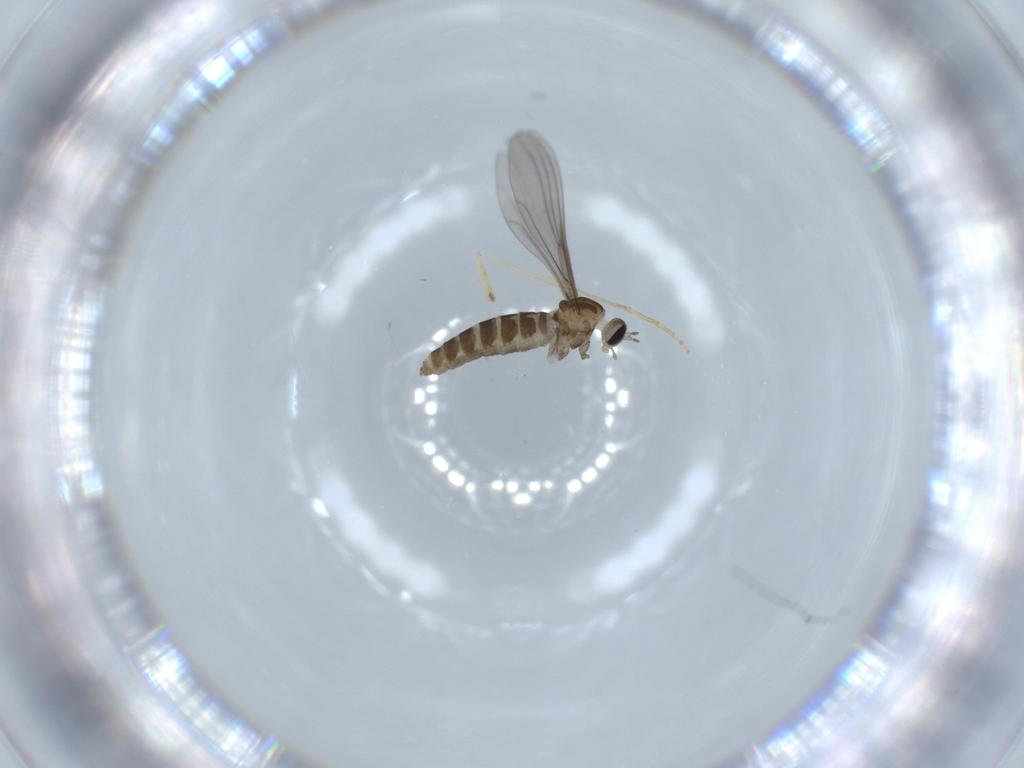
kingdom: Animalia
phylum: Arthropoda
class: Insecta
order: Diptera
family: Cecidomyiidae
